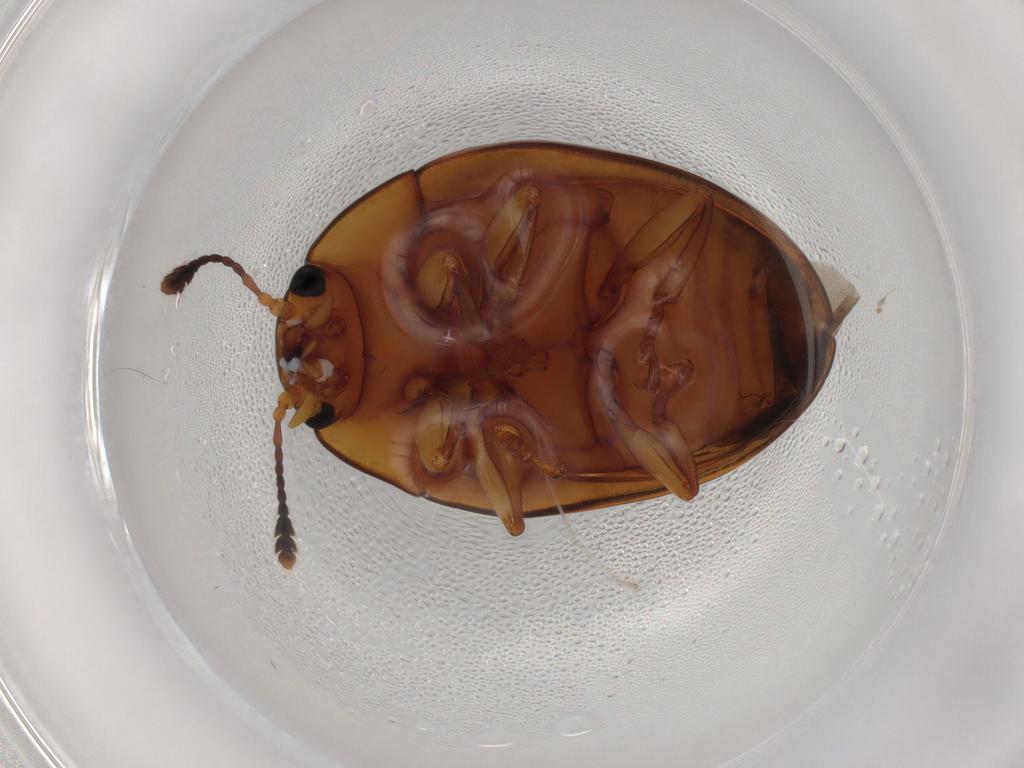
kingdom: Animalia
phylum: Arthropoda
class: Insecta
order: Coleoptera
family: Erotylidae
